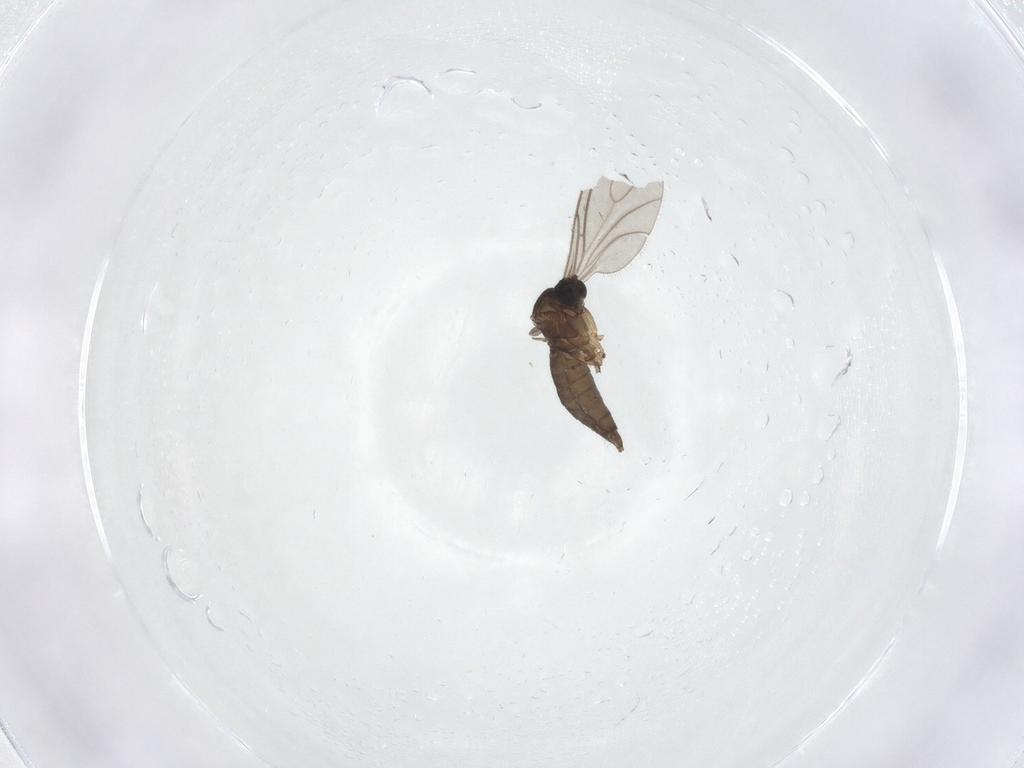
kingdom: Animalia
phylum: Arthropoda
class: Insecta
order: Diptera
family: Sciaridae
